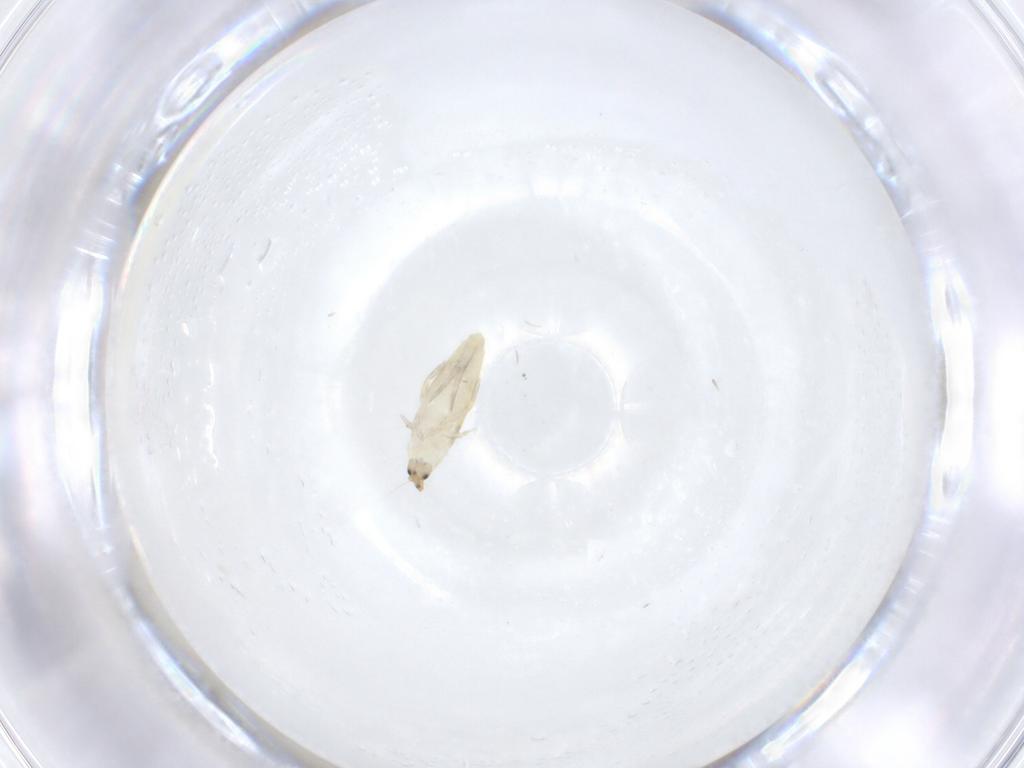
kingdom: Animalia
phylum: Arthropoda
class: Collembola
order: Entomobryomorpha
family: Entomobryidae
